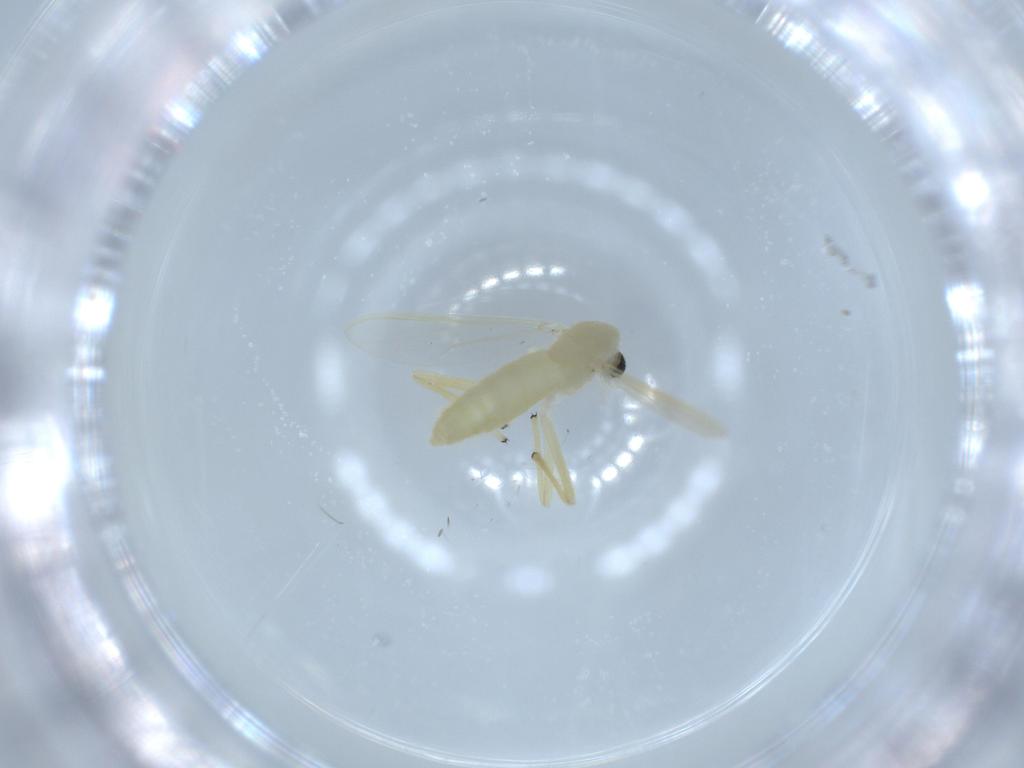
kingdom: Animalia
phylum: Arthropoda
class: Insecta
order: Diptera
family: Chironomidae
